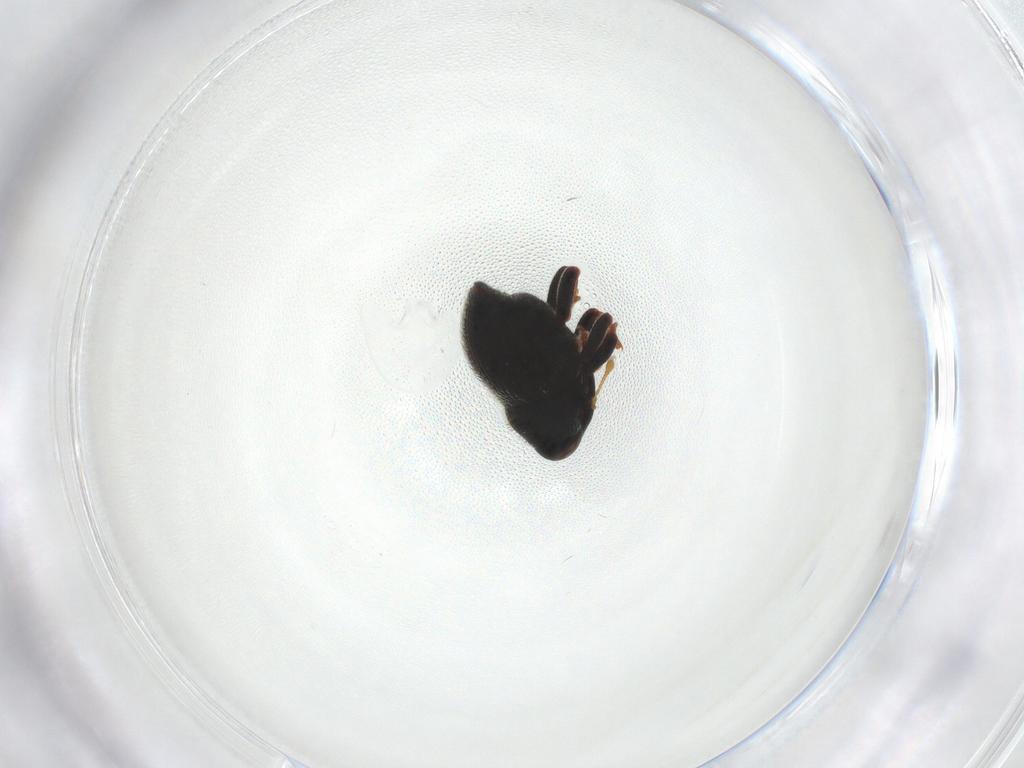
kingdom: Animalia
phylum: Arthropoda
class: Insecta
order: Coleoptera
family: Curculionidae
